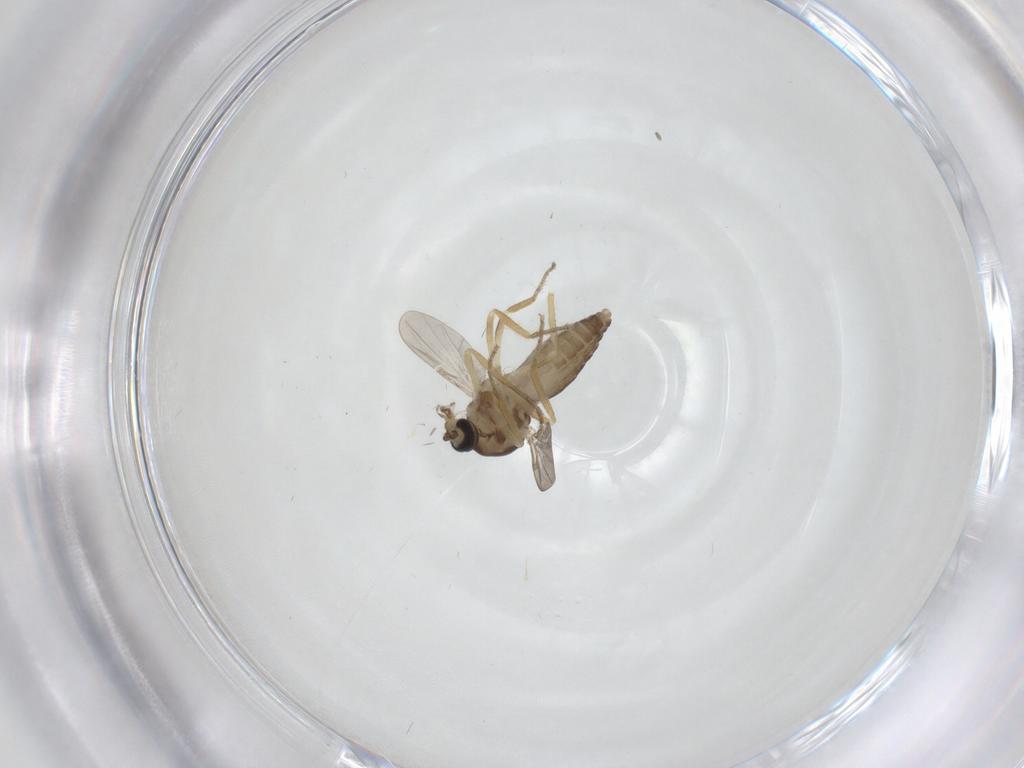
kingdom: Animalia
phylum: Arthropoda
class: Insecta
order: Diptera
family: Ceratopogonidae
